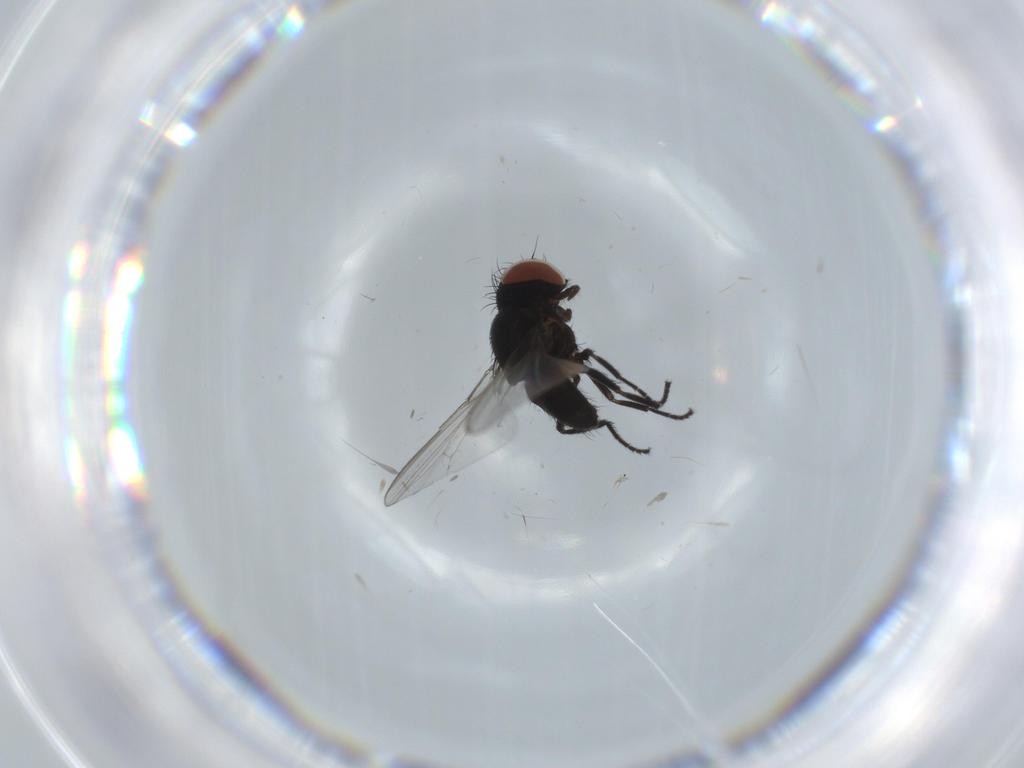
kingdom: Animalia
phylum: Arthropoda
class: Insecta
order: Diptera
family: Milichiidae
